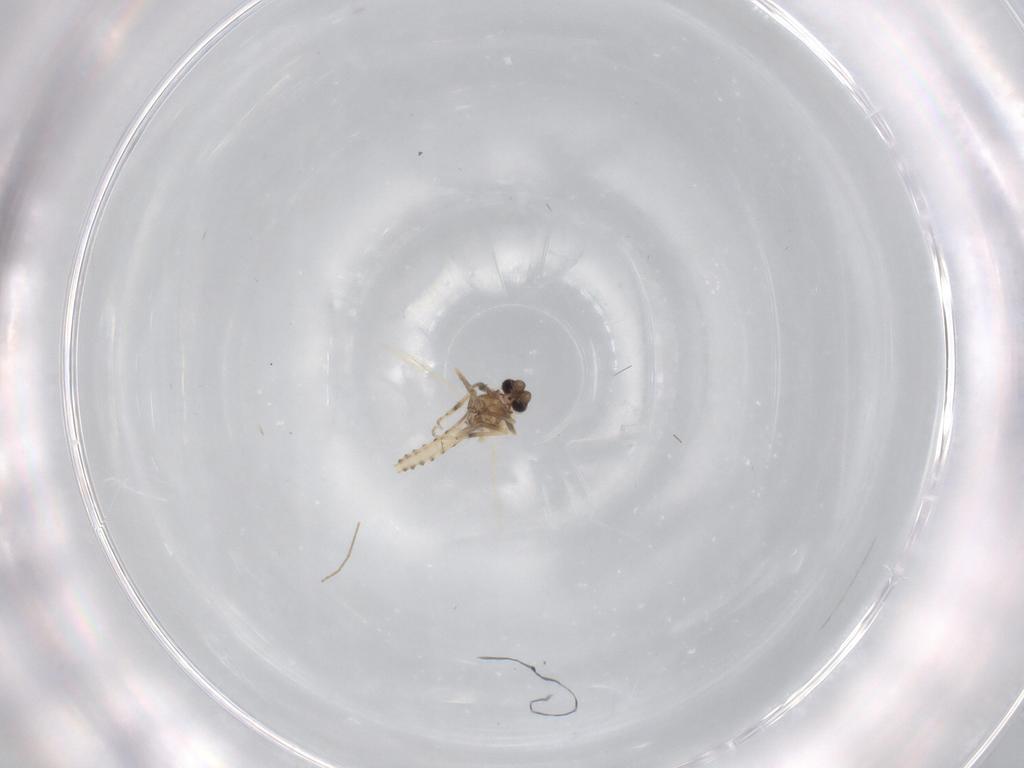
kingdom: Animalia
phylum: Arthropoda
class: Insecta
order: Diptera
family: Ceratopogonidae
